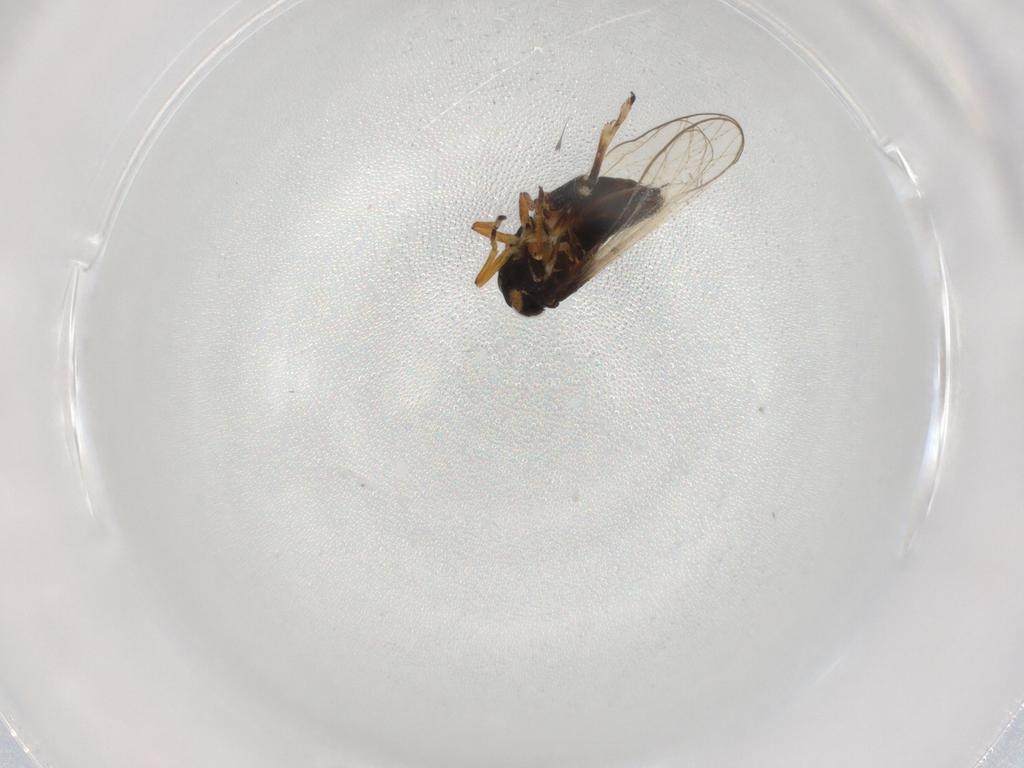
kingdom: Animalia
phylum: Arthropoda
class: Insecta
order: Hemiptera
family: Delphacidae
